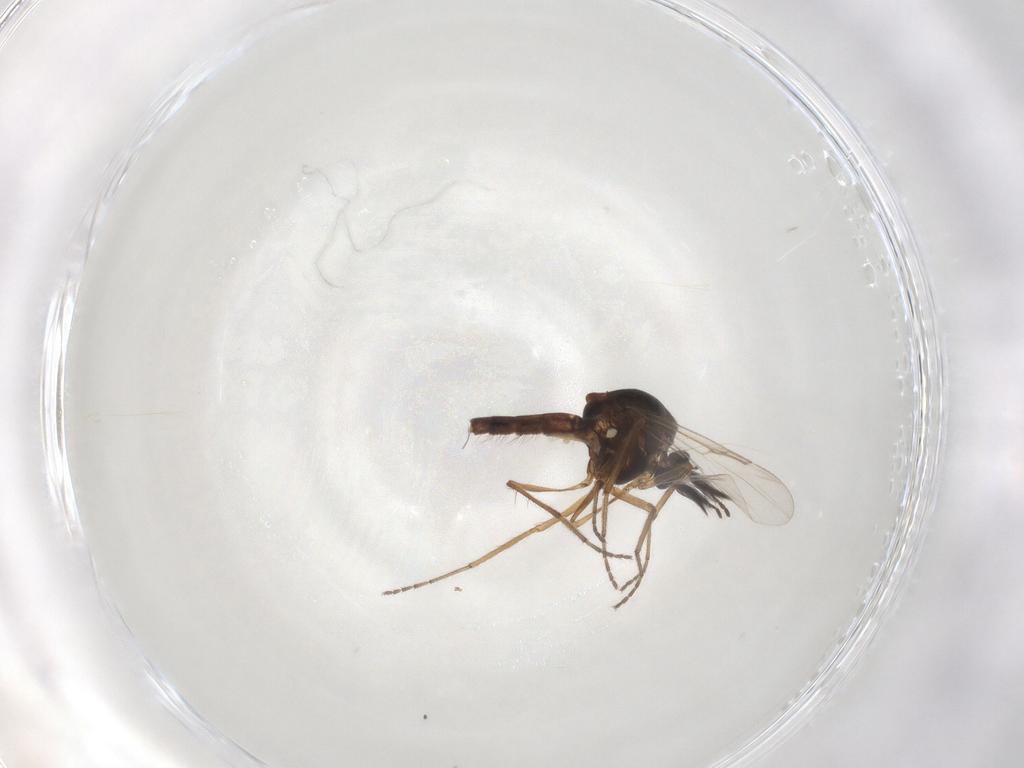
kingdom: Animalia
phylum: Arthropoda
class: Insecta
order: Diptera
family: Ceratopogonidae
